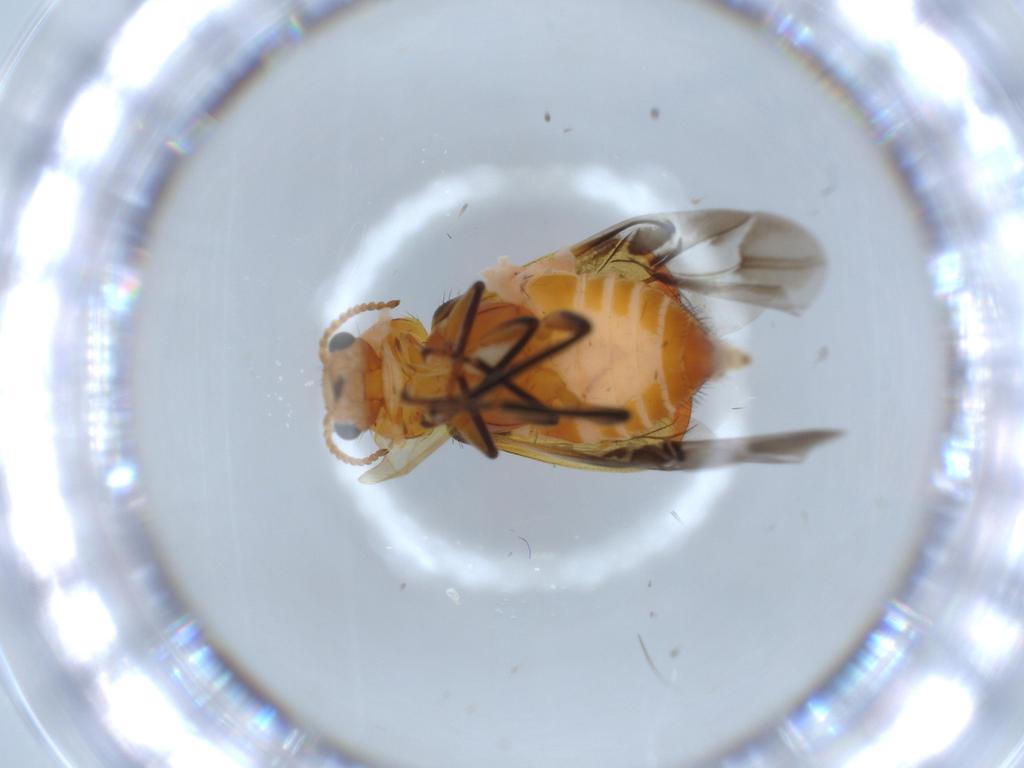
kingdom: Animalia
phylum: Arthropoda
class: Insecta
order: Coleoptera
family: Melyridae
